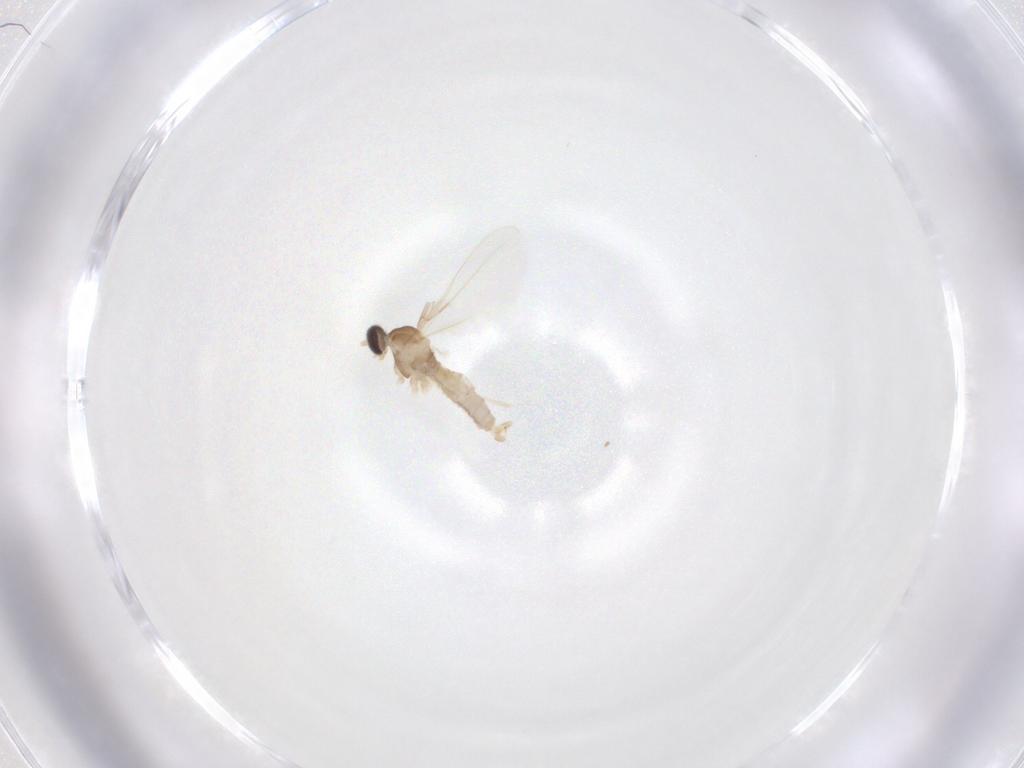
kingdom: Animalia
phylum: Arthropoda
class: Insecta
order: Diptera
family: Cecidomyiidae
